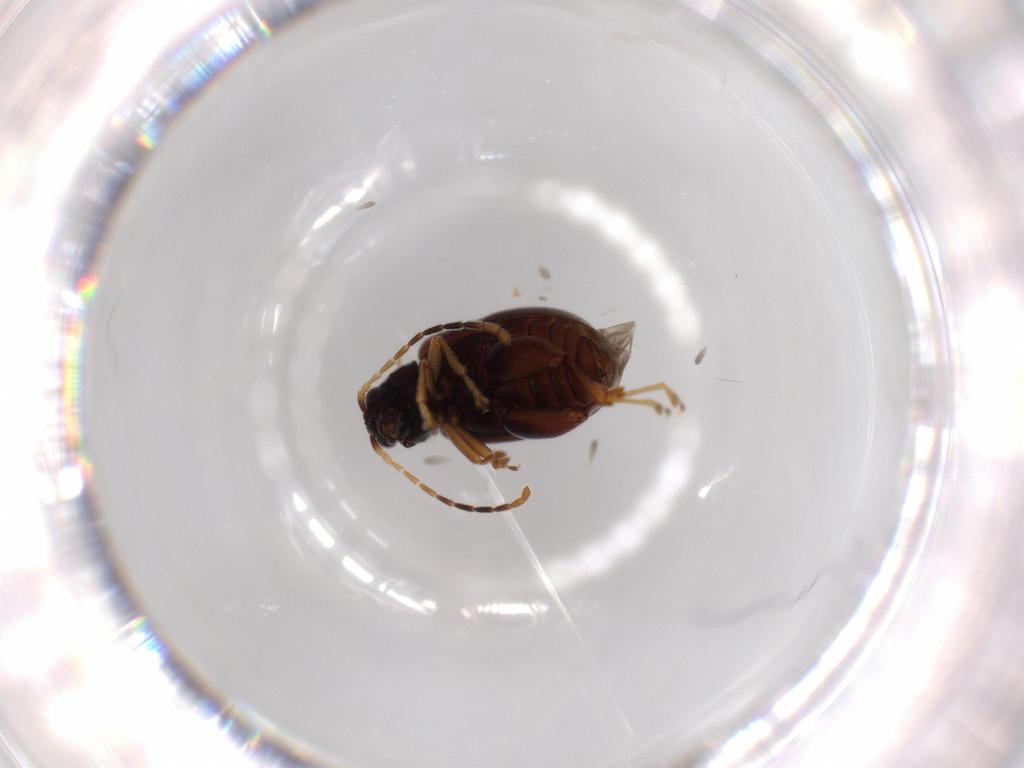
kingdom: Animalia
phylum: Arthropoda
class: Insecta
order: Coleoptera
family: Chrysomelidae
